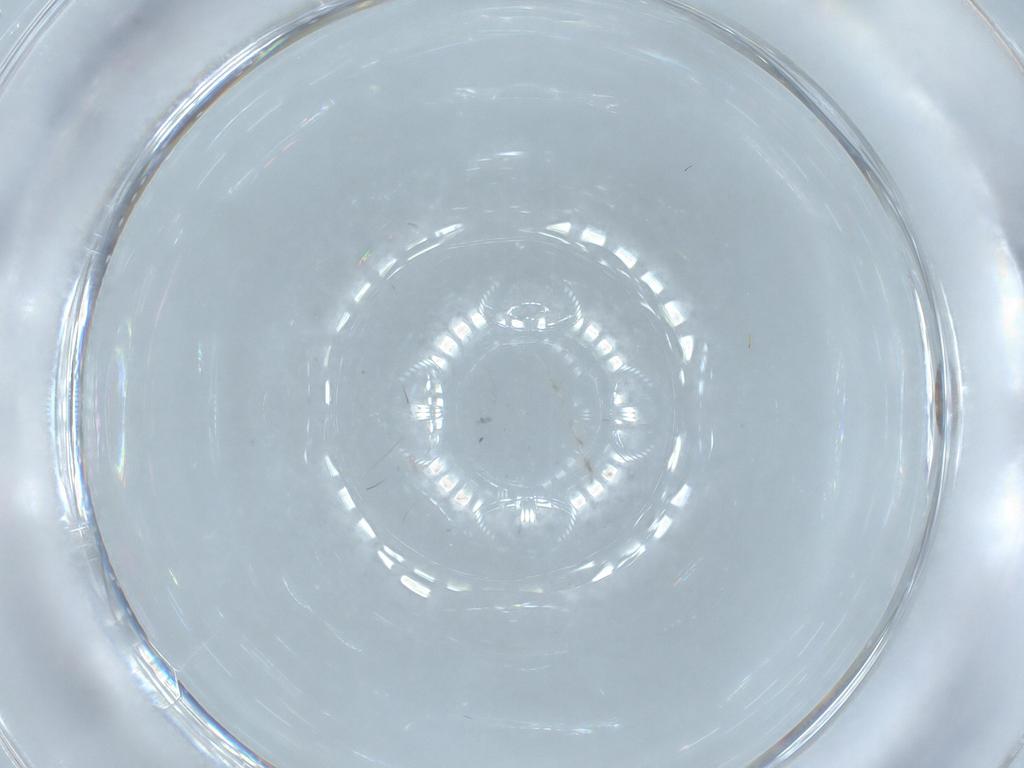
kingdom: Animalia
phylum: Arthropoda
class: Insecta
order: Hymenoptera
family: Platygastridae
